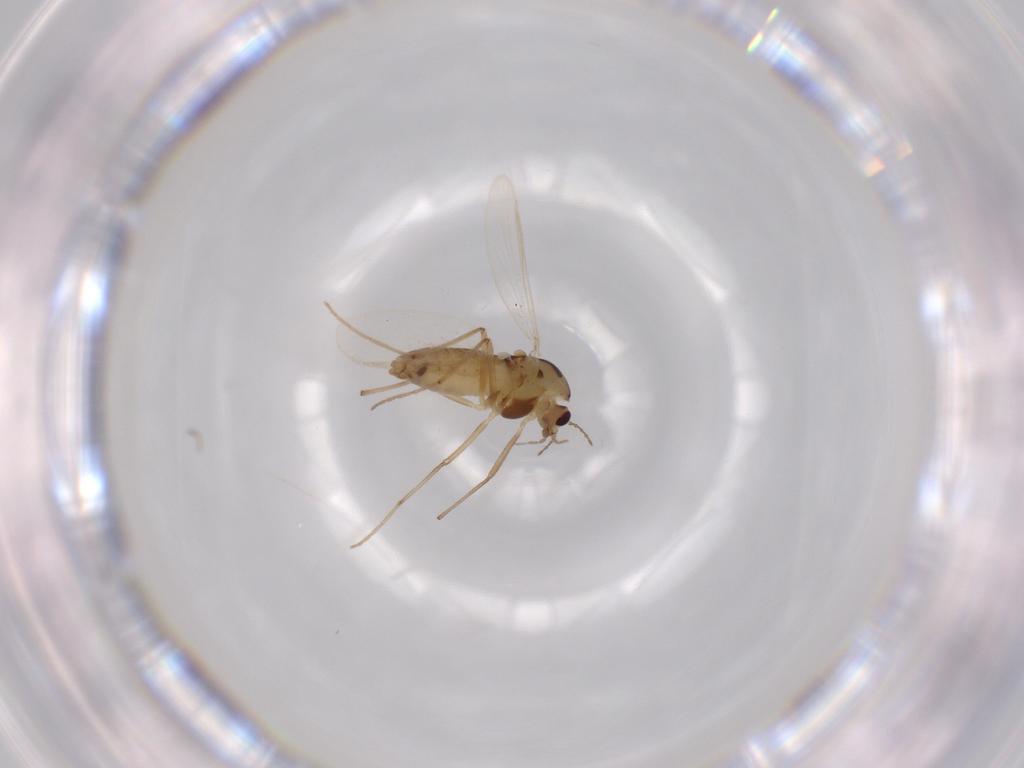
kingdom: Animalia
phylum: Arthropoda
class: Insecta
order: Diptera
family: Chironomidae
